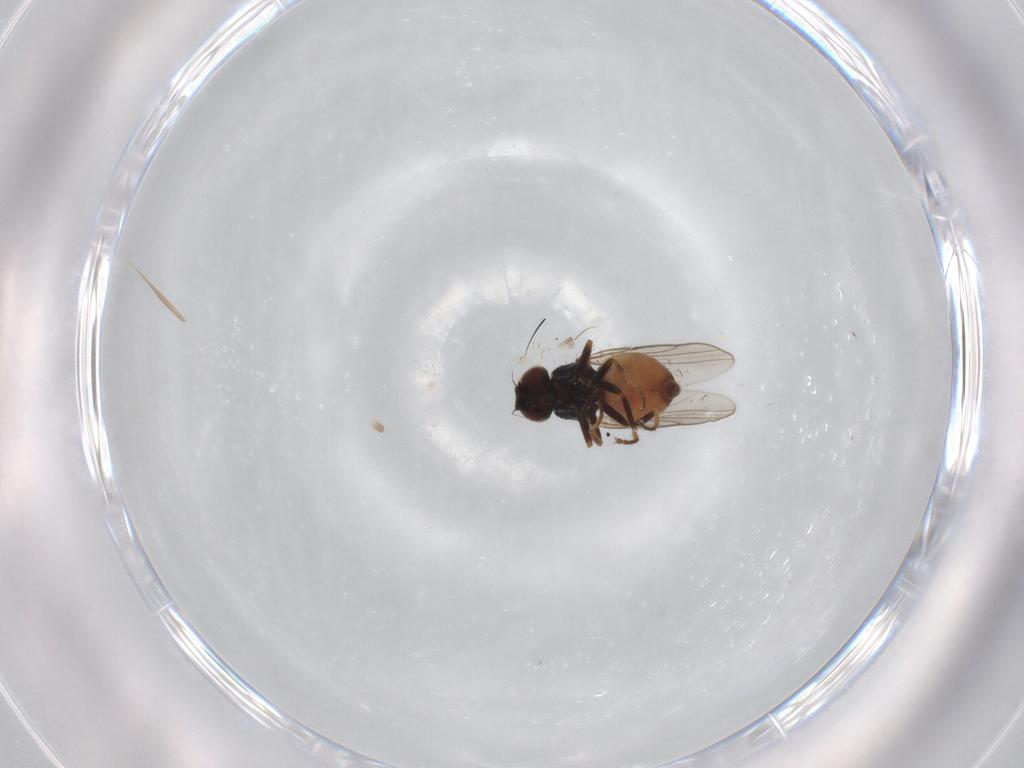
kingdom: Animalia
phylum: Arthropoda
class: Insecta
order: Diptera
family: Chloropidae
